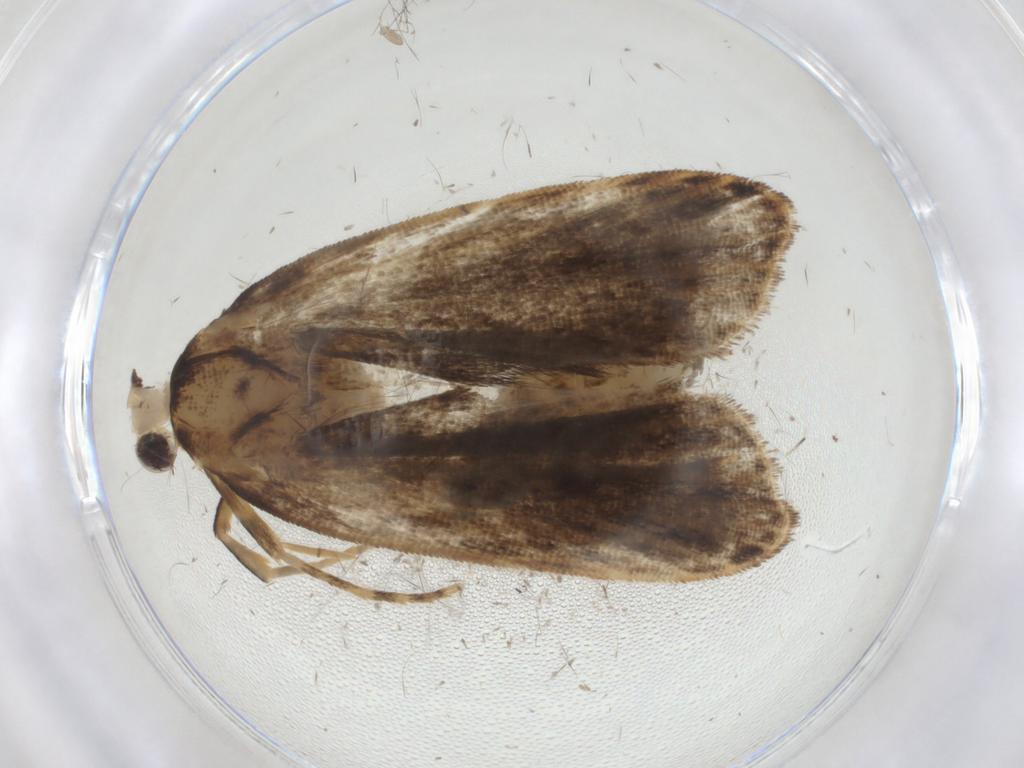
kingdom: Animalia
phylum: Arthropoda
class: Insecta
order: Lepidoptera
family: Gelechiidae
